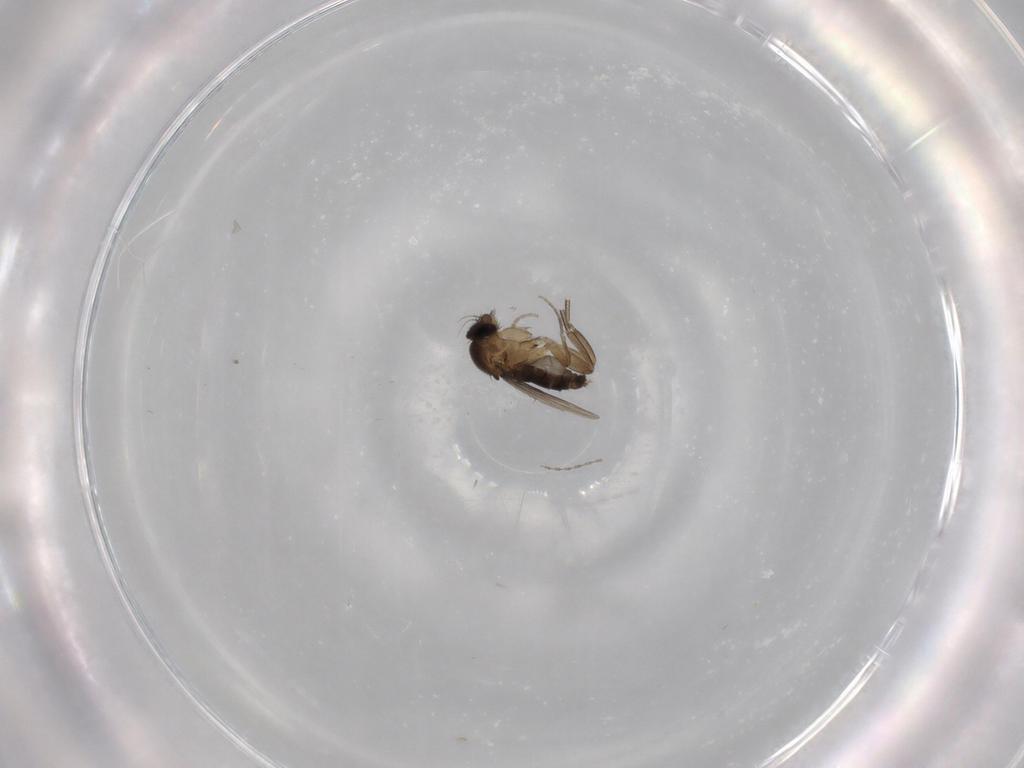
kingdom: Animalia
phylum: Arthropoda
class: Insecta
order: Diptera
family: Phoridae
